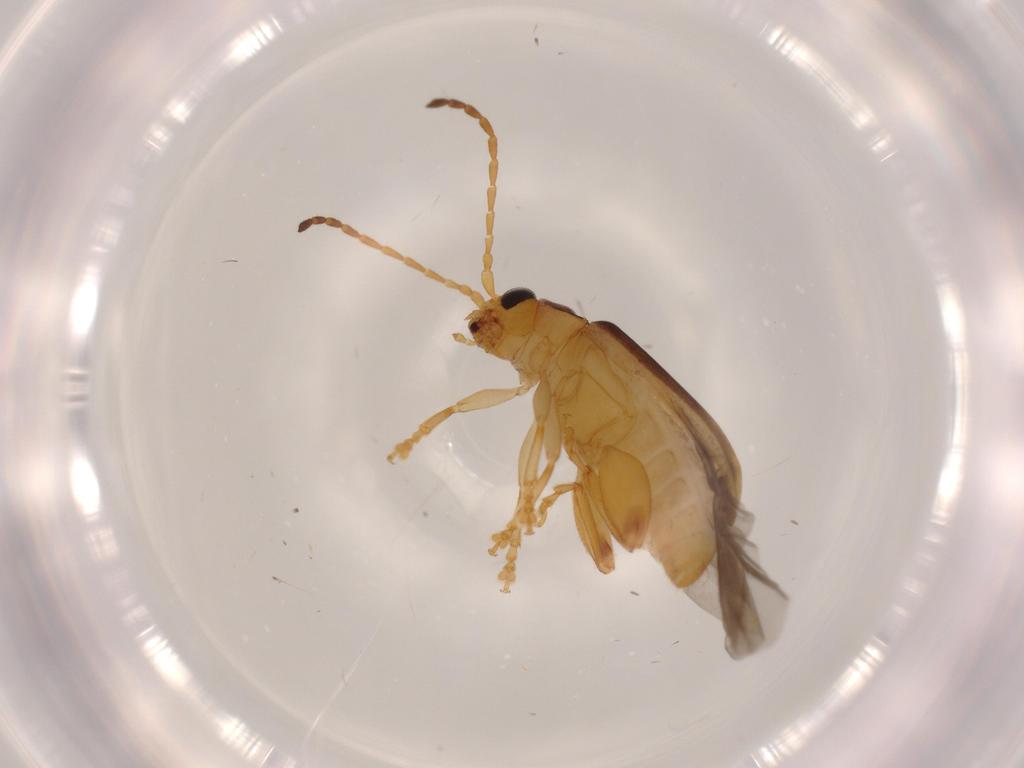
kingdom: Animalia
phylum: Arthropoda
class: Insecta
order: Coleoptera
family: Chrysomelidae
